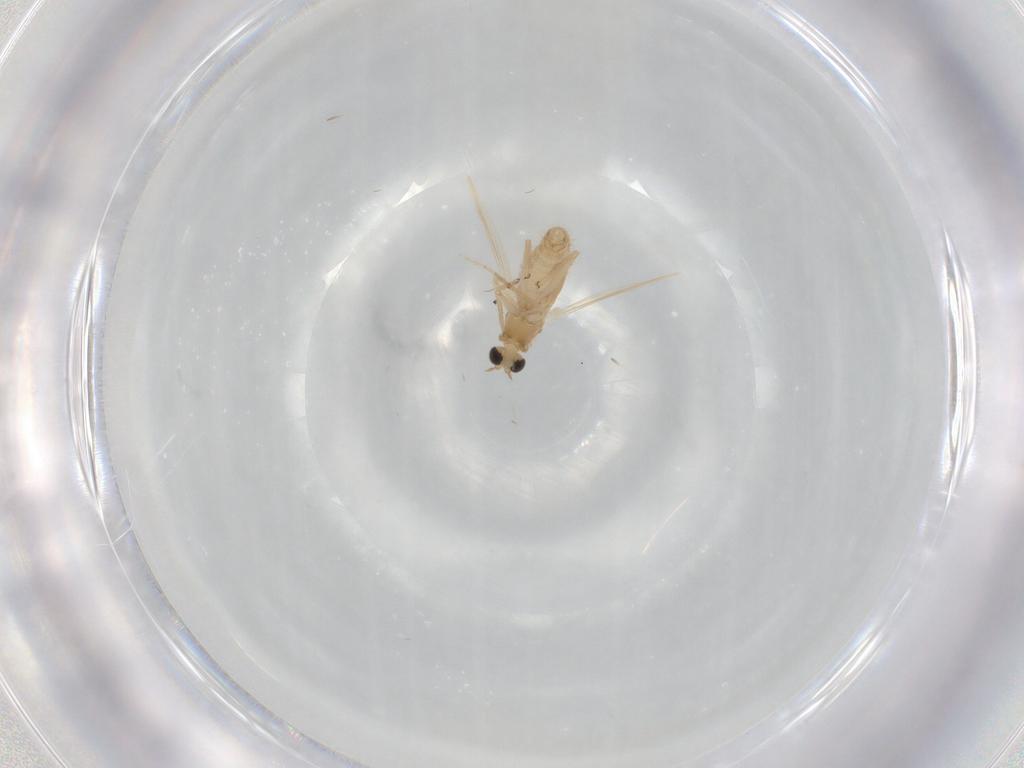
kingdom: Animalia
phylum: Arthropoda
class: Insecta
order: Diptera
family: Chironomidae
